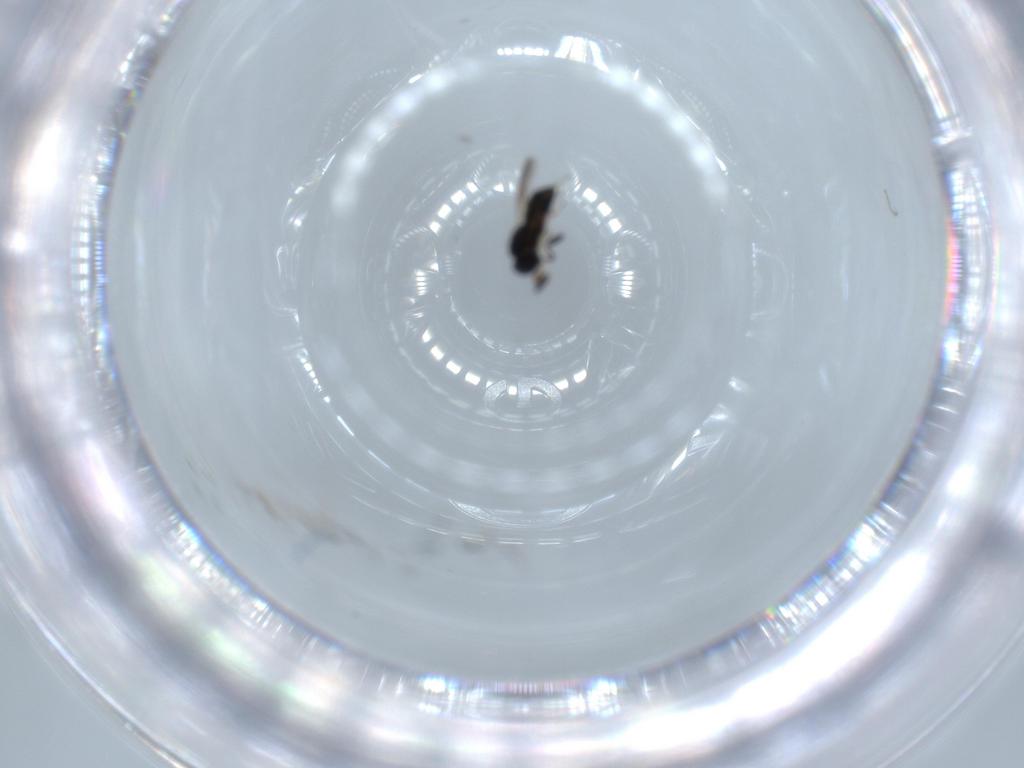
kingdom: Animalia
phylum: Arthropoda
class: Insecta
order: Hymenoptera
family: Scelionidae
